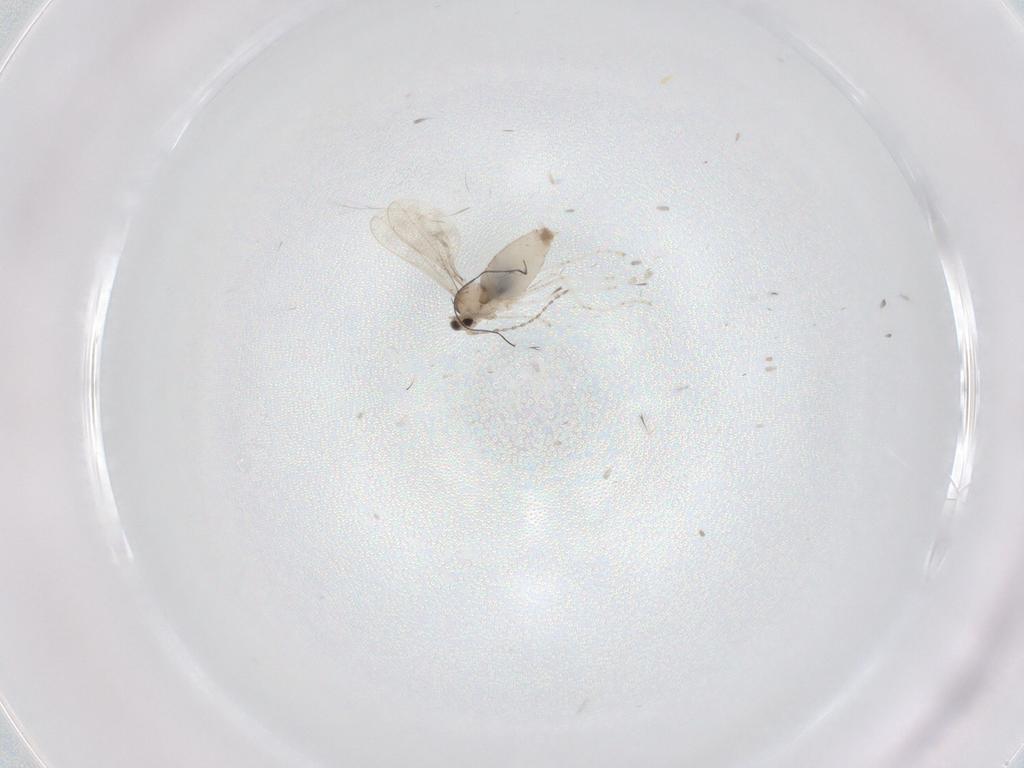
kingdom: Animalia
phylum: Arthropoda
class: Insecta
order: Diptera
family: Cecidomyiidae
